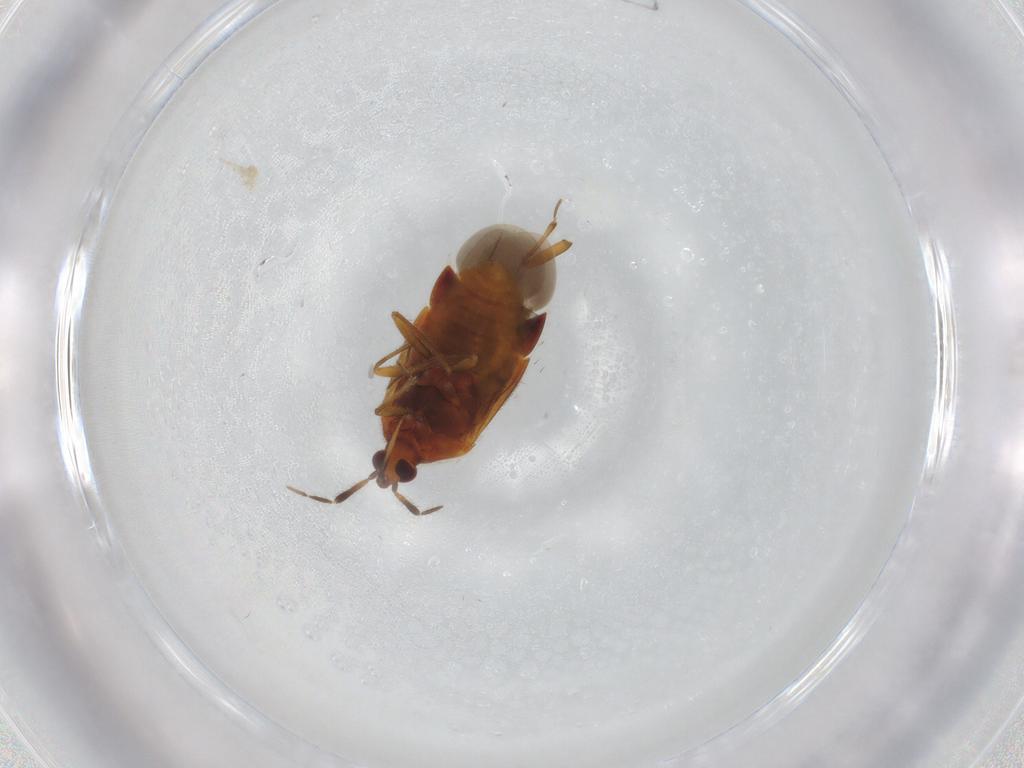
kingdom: Animalia
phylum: Arthropoda
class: Insecta
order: Hemiptera
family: Anthocoridae
